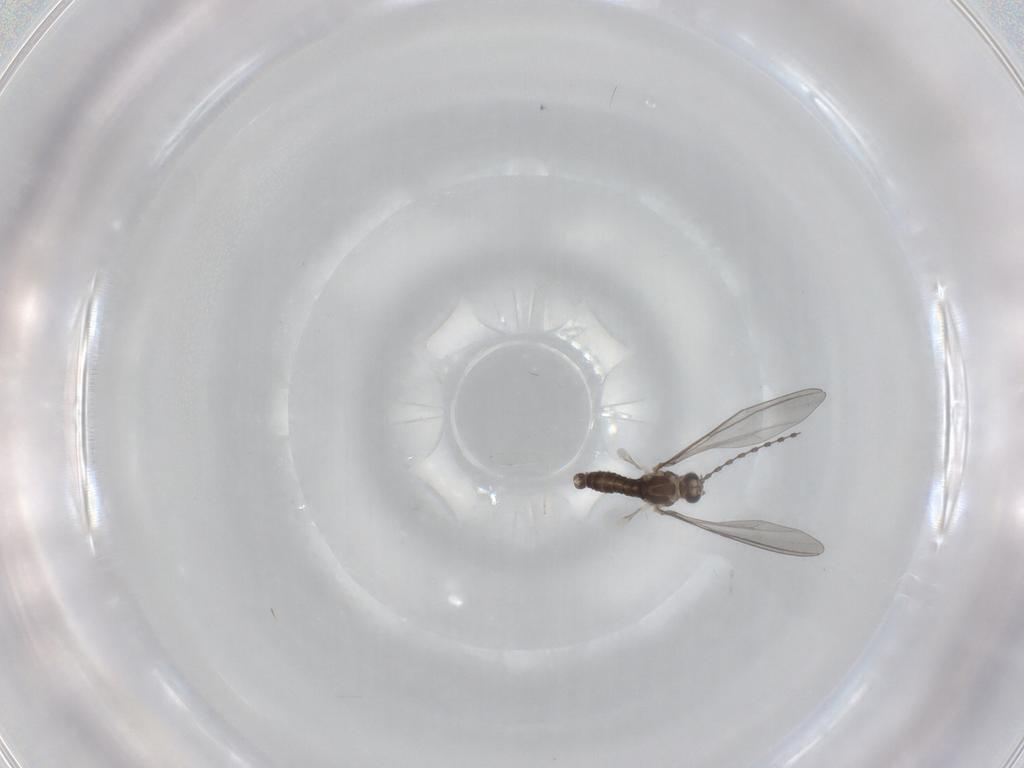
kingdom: Animalia
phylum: Arthropoda
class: Insecta
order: Diptera
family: Cecidomyiidae
